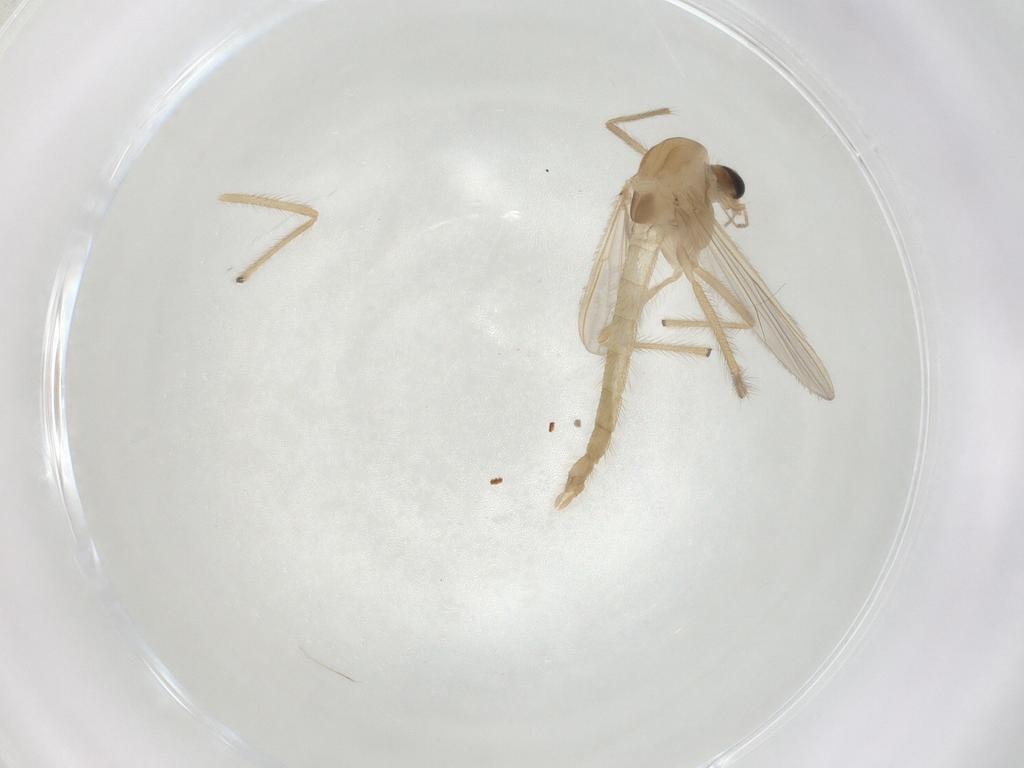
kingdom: Animalia
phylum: Arthropoda
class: Insecta
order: Diptera
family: Chironomidae
